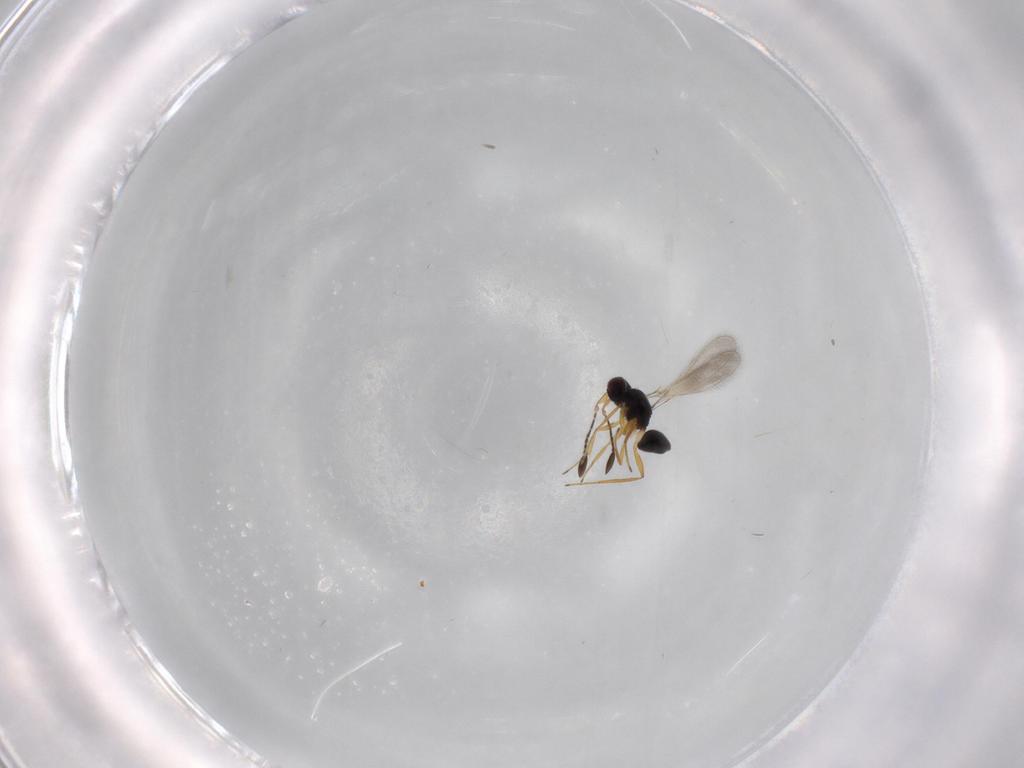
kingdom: Animalia
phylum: Arthropoda
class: Insecta
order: Hymenoptera
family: Mymaridae
